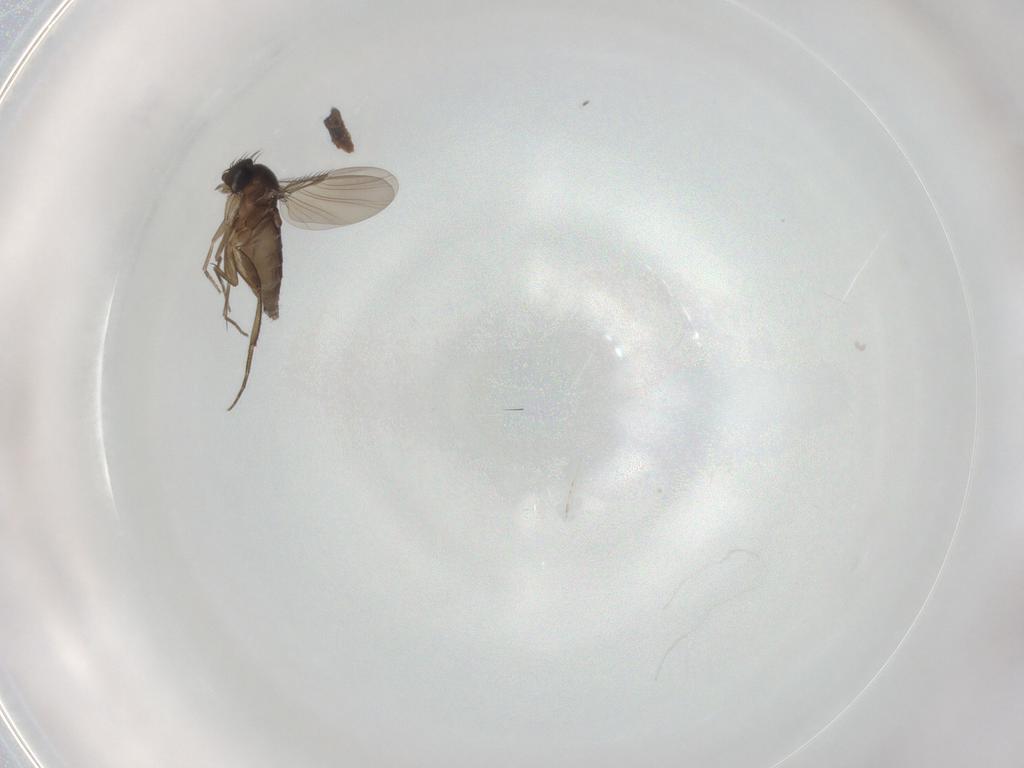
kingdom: Animalia
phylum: Arthropoda
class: Insecta
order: Diptera
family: Phoridae
